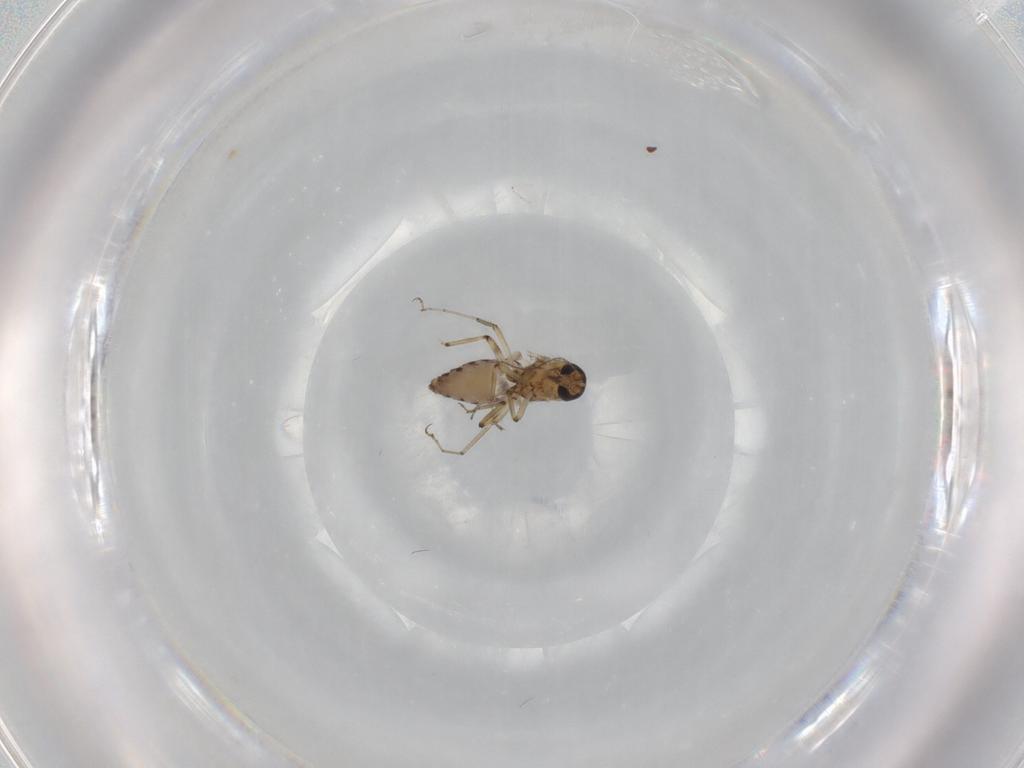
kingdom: Animalia
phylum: Arthropoda
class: Insecta
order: Diptera
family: Ceratopogonidae
